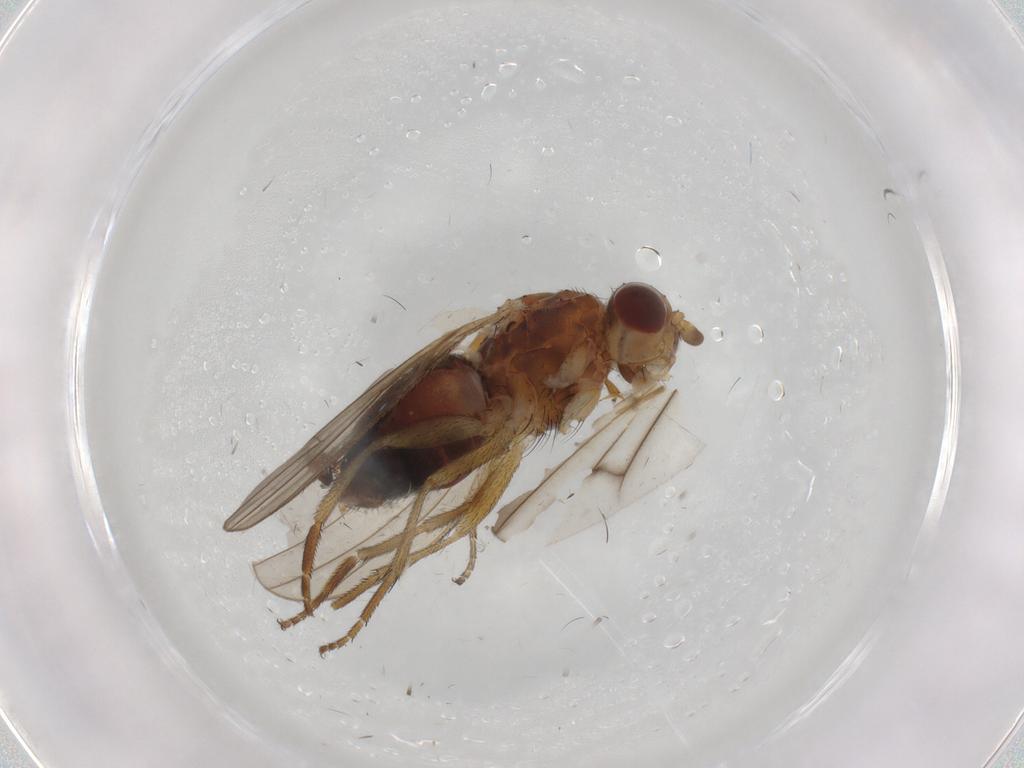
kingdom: Animalia
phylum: Arthropoda
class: Insecta
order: Diptera
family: Heleomyzidae
